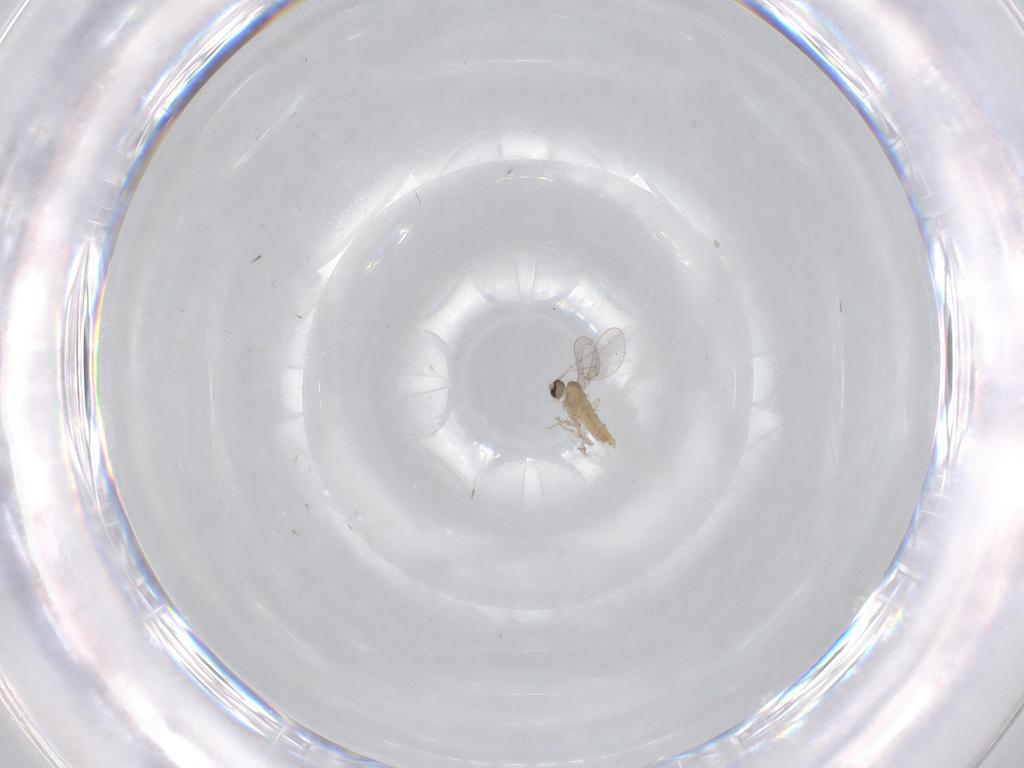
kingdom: Animalia
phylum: Arthropoda
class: Insecta
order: Diptera
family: Cecidomyiidae
